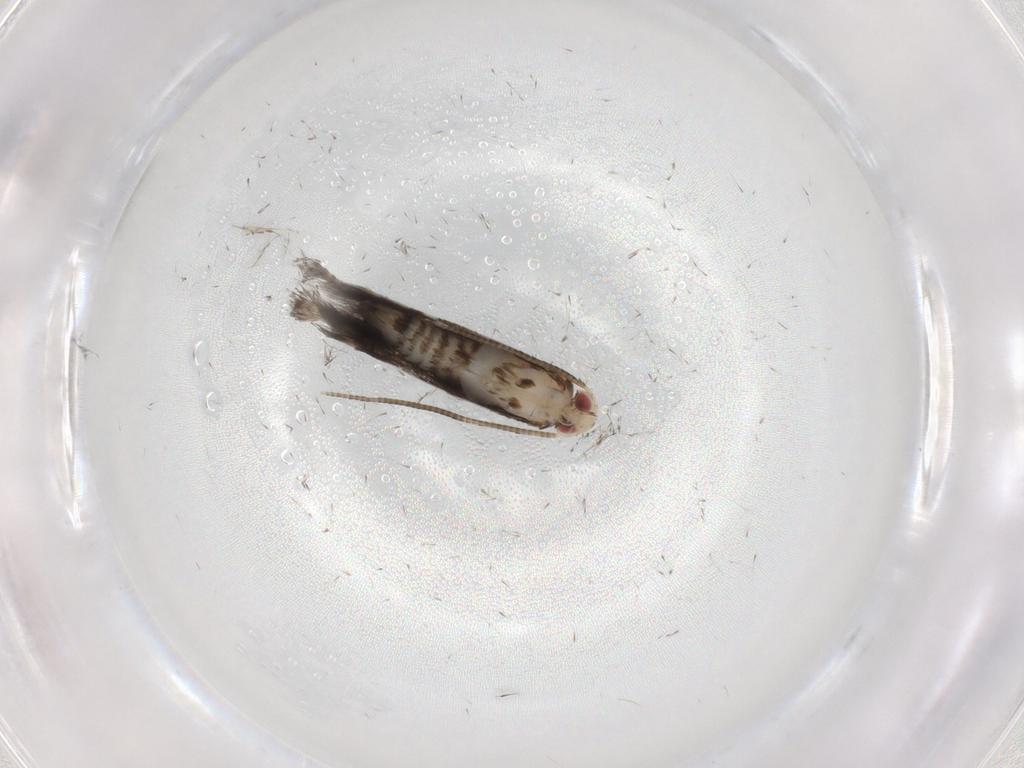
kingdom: Animalia
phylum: Arthropoda
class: Insecta
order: Lepidoptera
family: Gracillariidae
